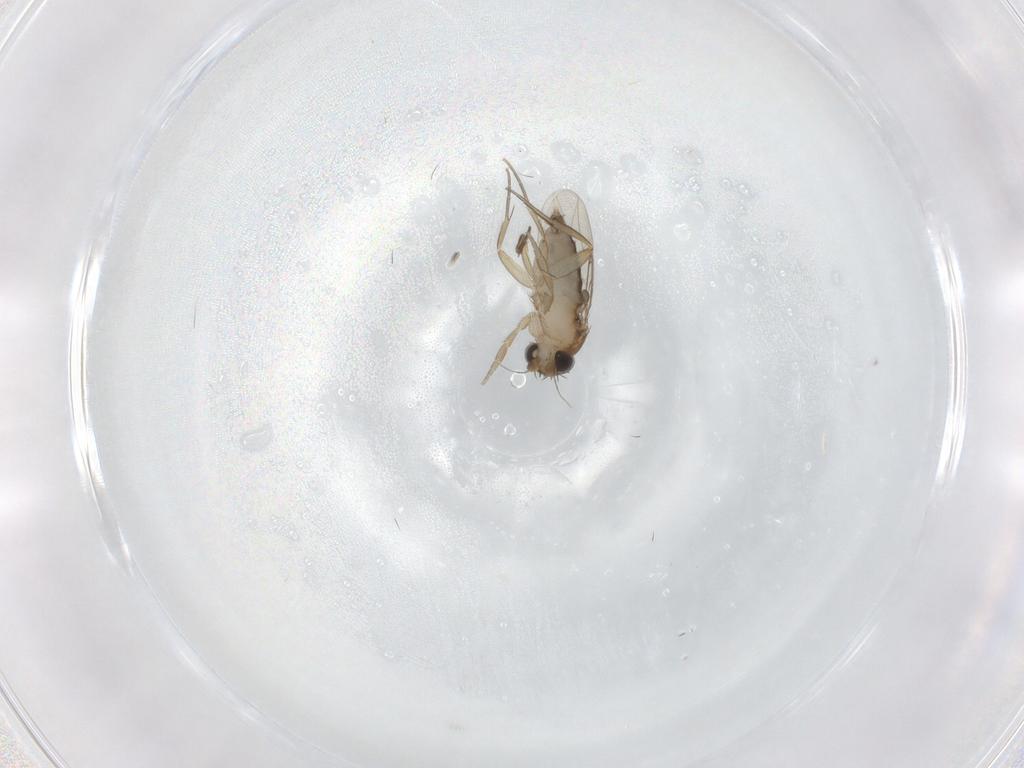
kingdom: Animalia
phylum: Arthropoda
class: Insecta
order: Diptera
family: Phoridae
